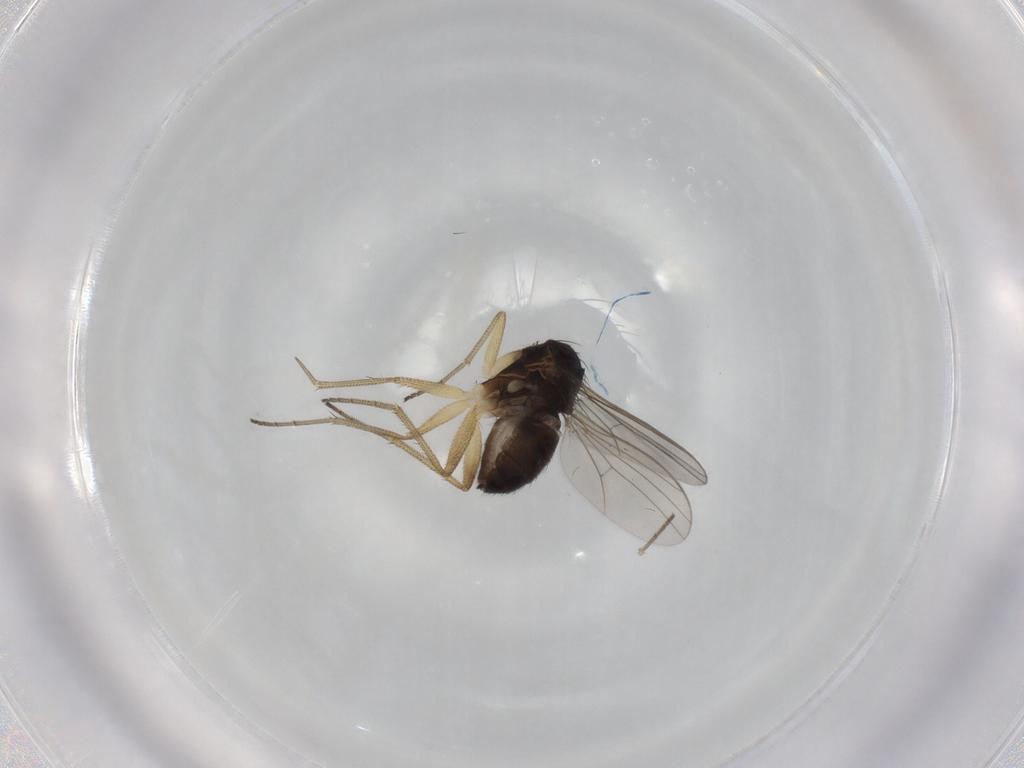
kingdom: Animalia
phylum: Arthropoda
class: Insecta
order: Diptera
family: Dolichopodidae
